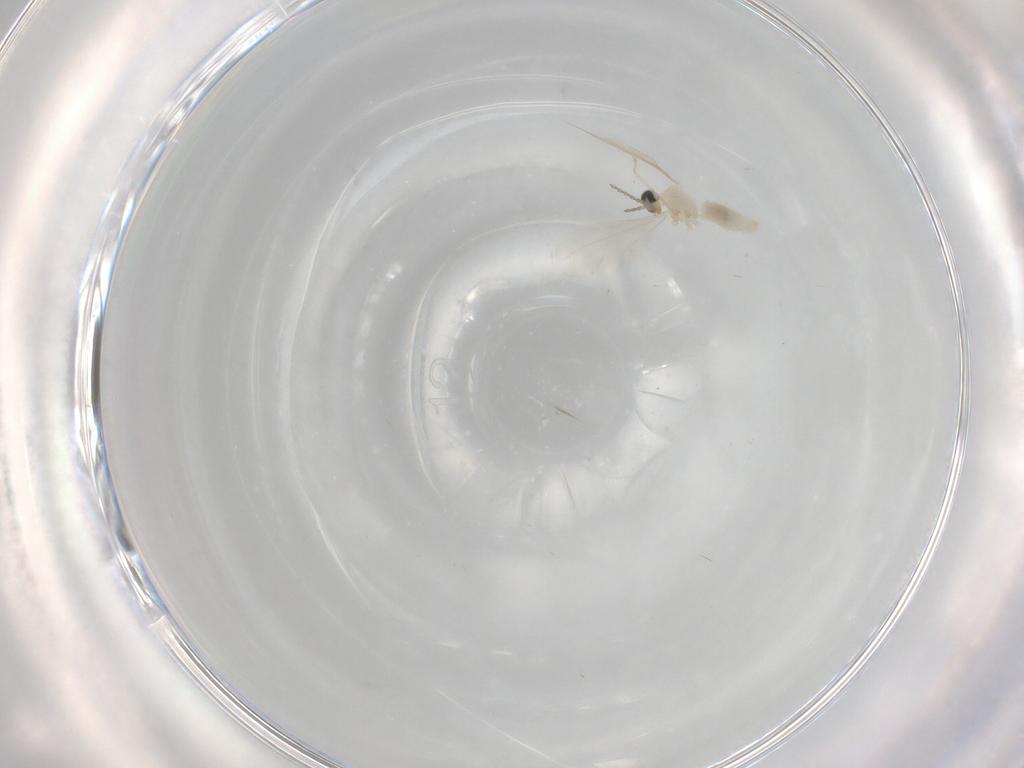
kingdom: Animalia
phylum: Arthropoda
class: Insecta
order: Diptera
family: Cecidomyiidae
